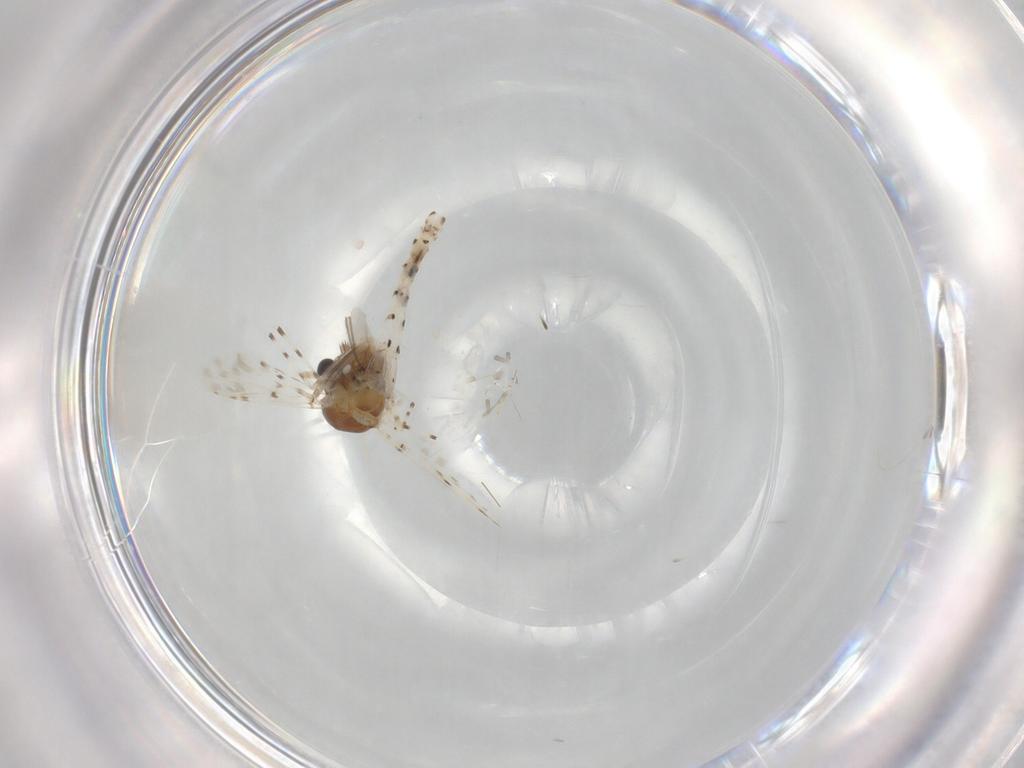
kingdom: Animalia
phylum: Arthropoda
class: Insecta
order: Diptera
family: Chironomidae
